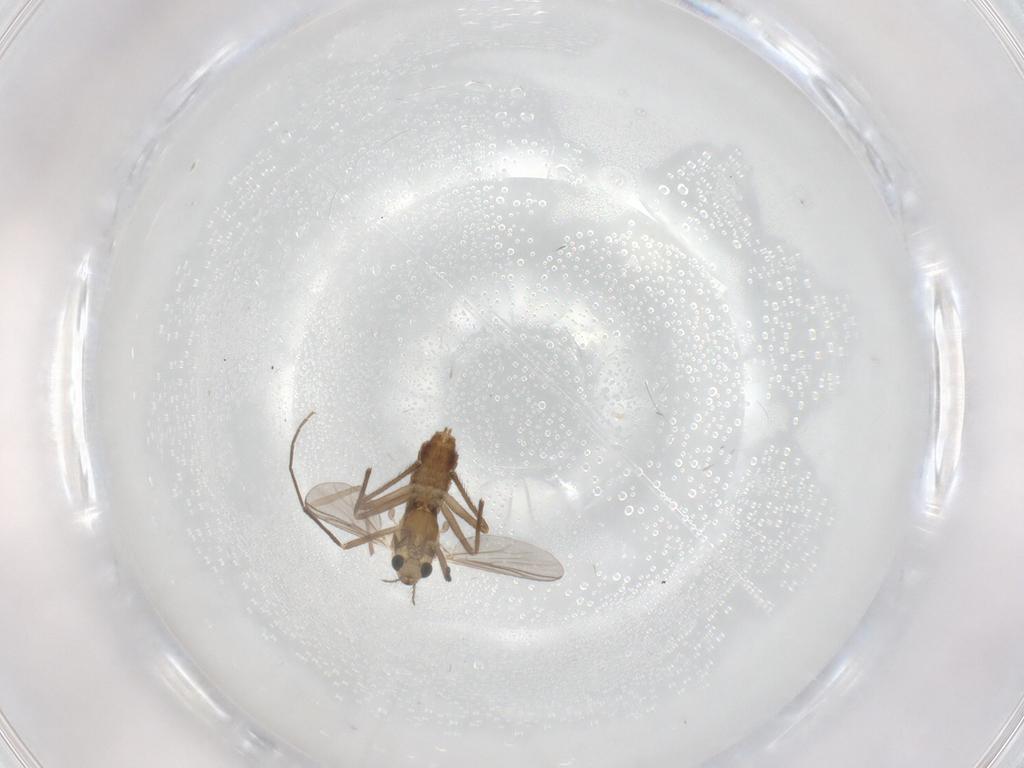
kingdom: Animalia
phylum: Arthropoda
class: Insecta
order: Diptera
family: Chironomidae
